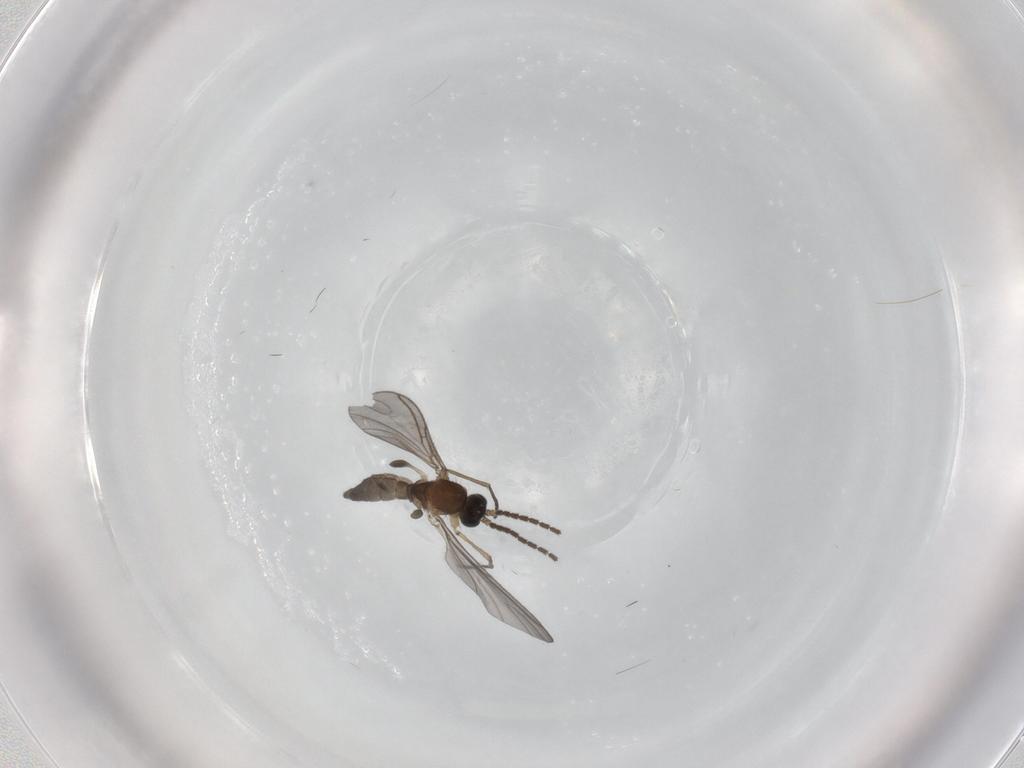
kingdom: Animalia
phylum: Arthropoda
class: Insecta
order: Diptera
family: Sciaridae
